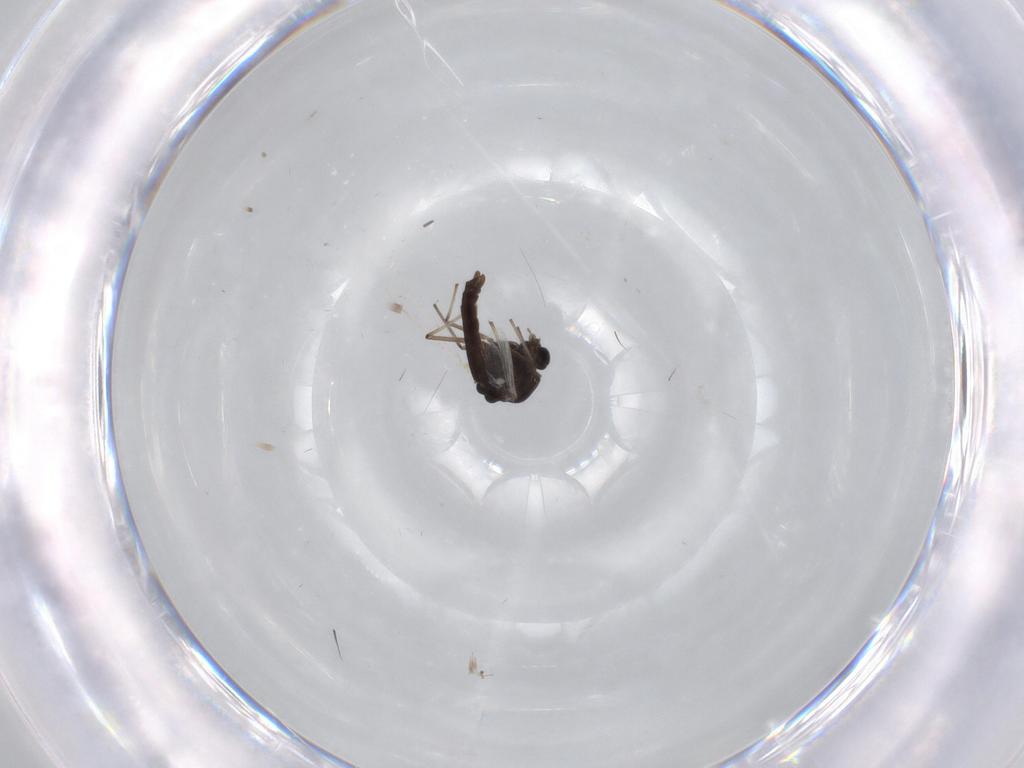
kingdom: Animalia
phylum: Arthropoda
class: Insecta
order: Diptera
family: Chironomidae
